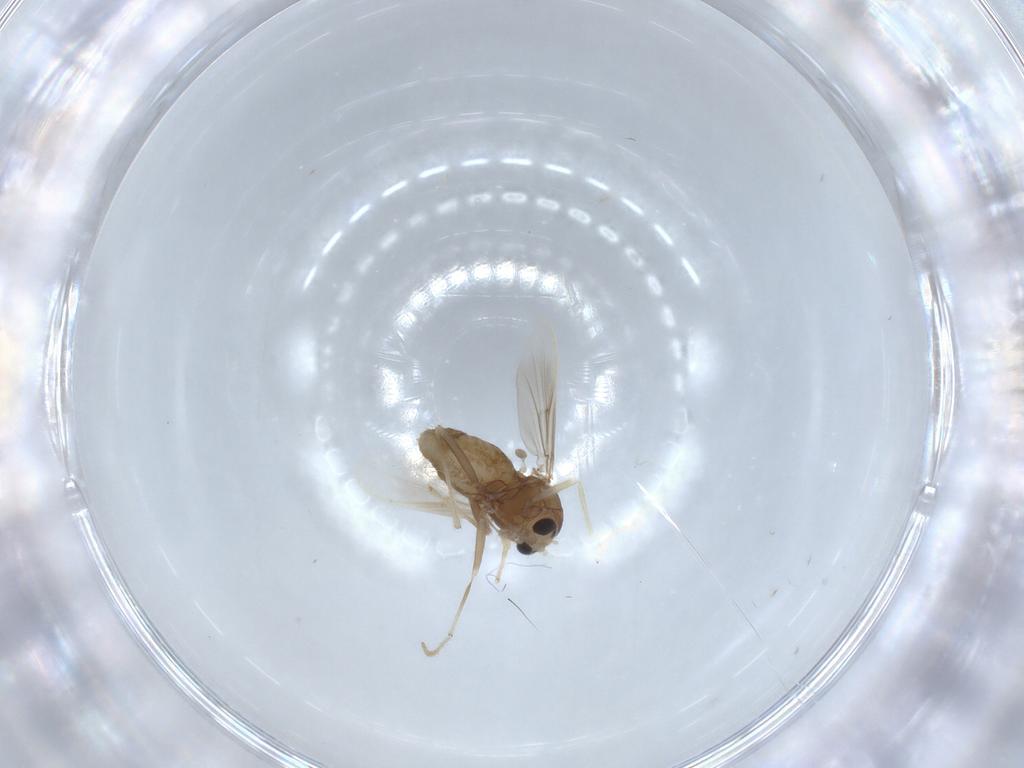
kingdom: Animalia
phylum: Arthropoda
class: Insecta
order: Diptera
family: Chironomidae
